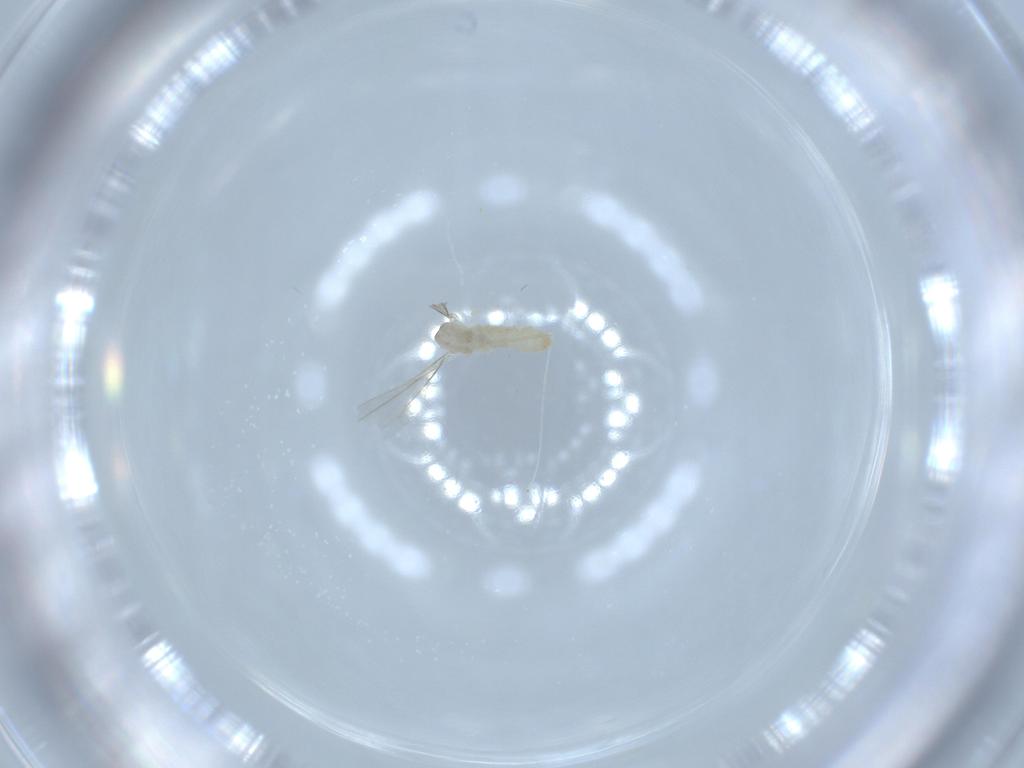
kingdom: Animalia
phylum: Arthropoda
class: Insecta
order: Diptera
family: Cecidomyiidae
